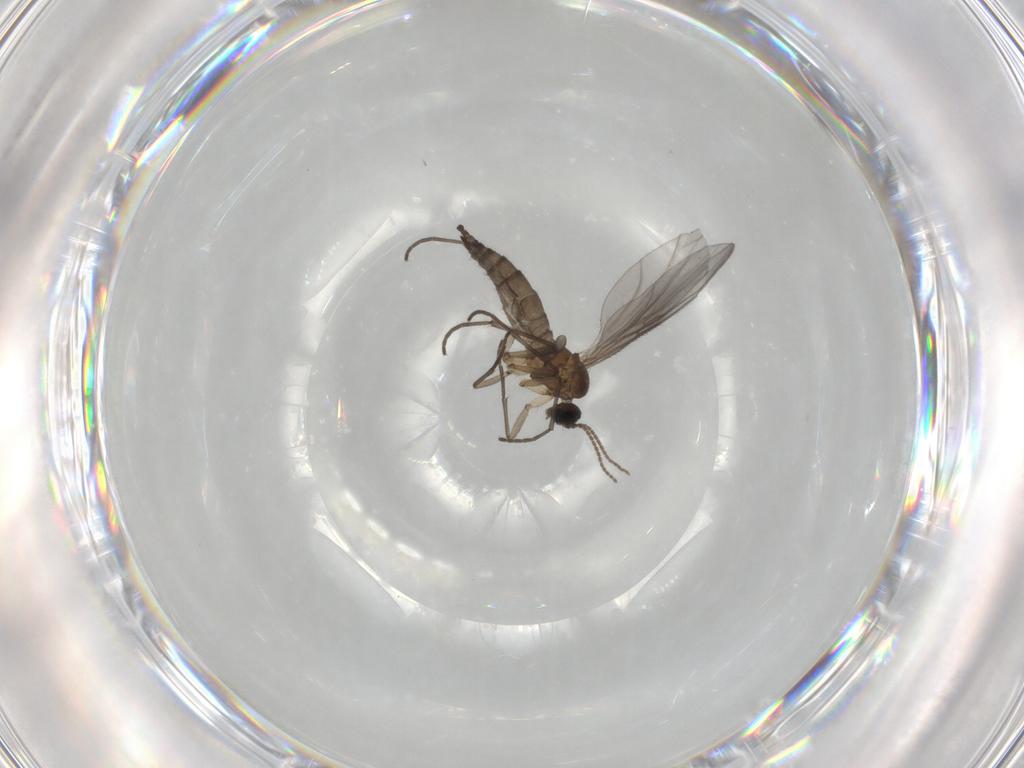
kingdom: Animalia
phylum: Arthropoda
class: Insecta
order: Diptera
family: Sciaridae
